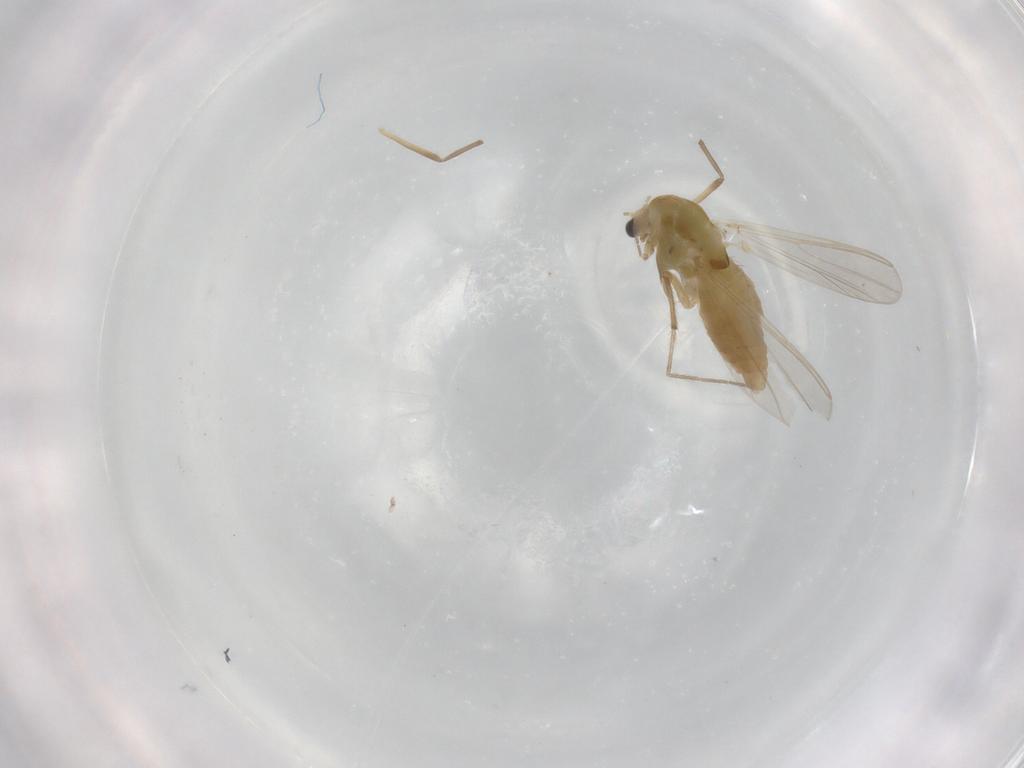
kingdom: Animalia
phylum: Arthropoda
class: Insecta
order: Diptera
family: Chironomidae
